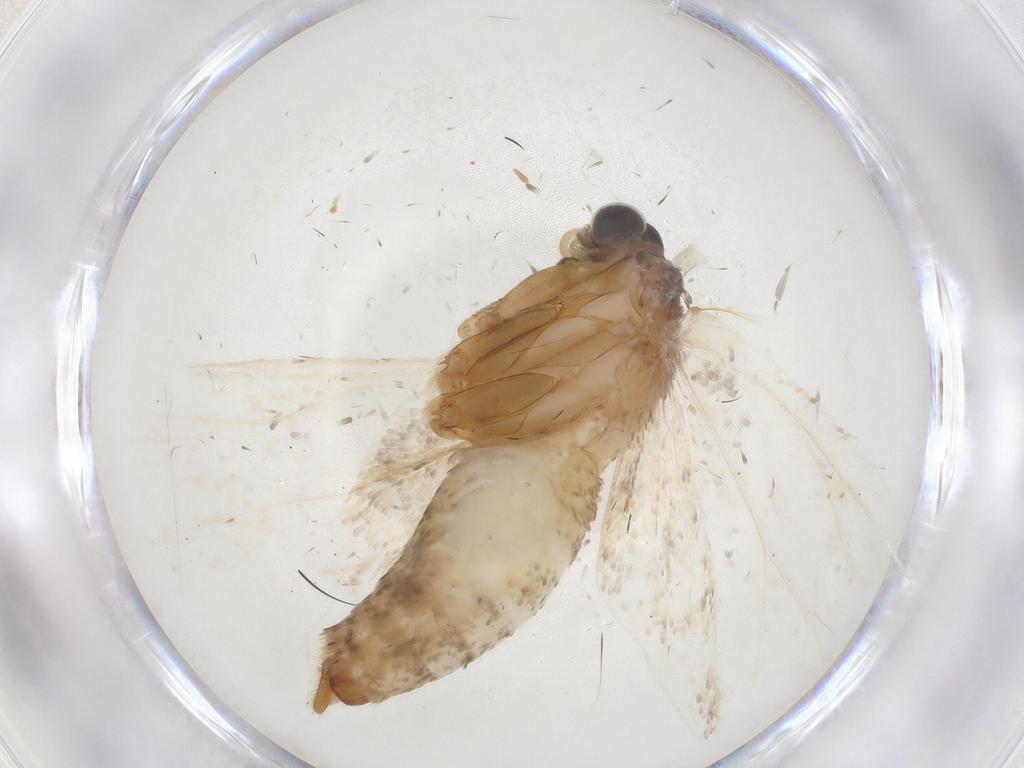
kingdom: Animalia
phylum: Arthropoda
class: Insecta
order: Lepidoptera
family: Tortricidae
